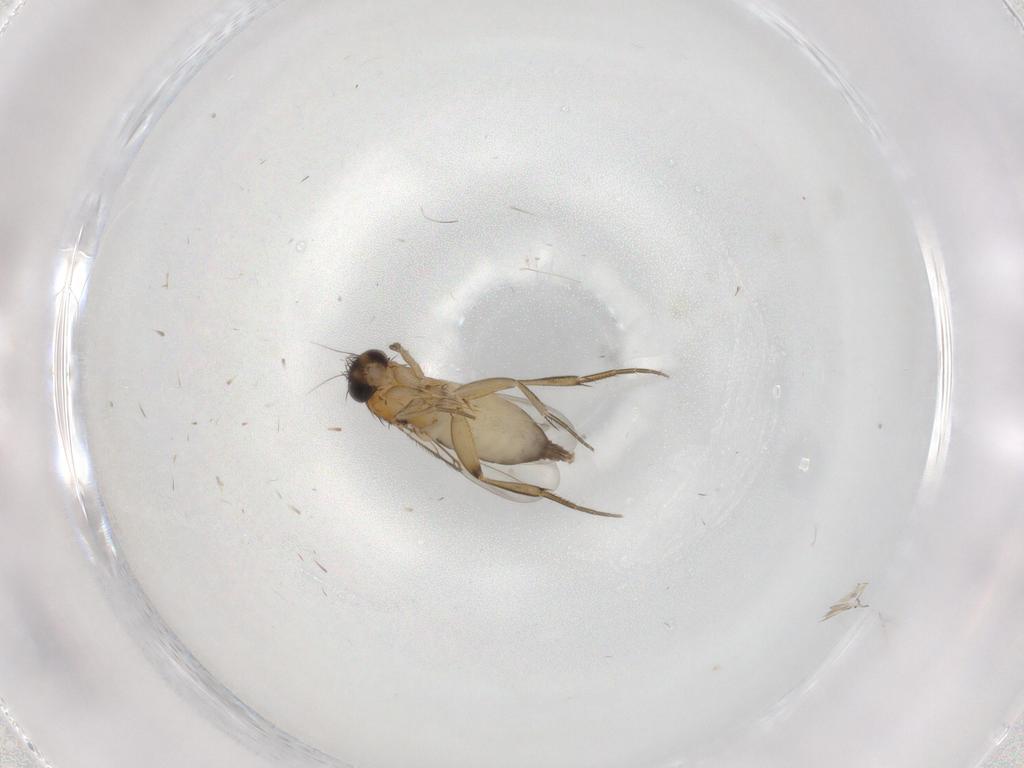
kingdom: Animalia
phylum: Arthropoda
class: Insecta
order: Diptera
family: Phoridae
